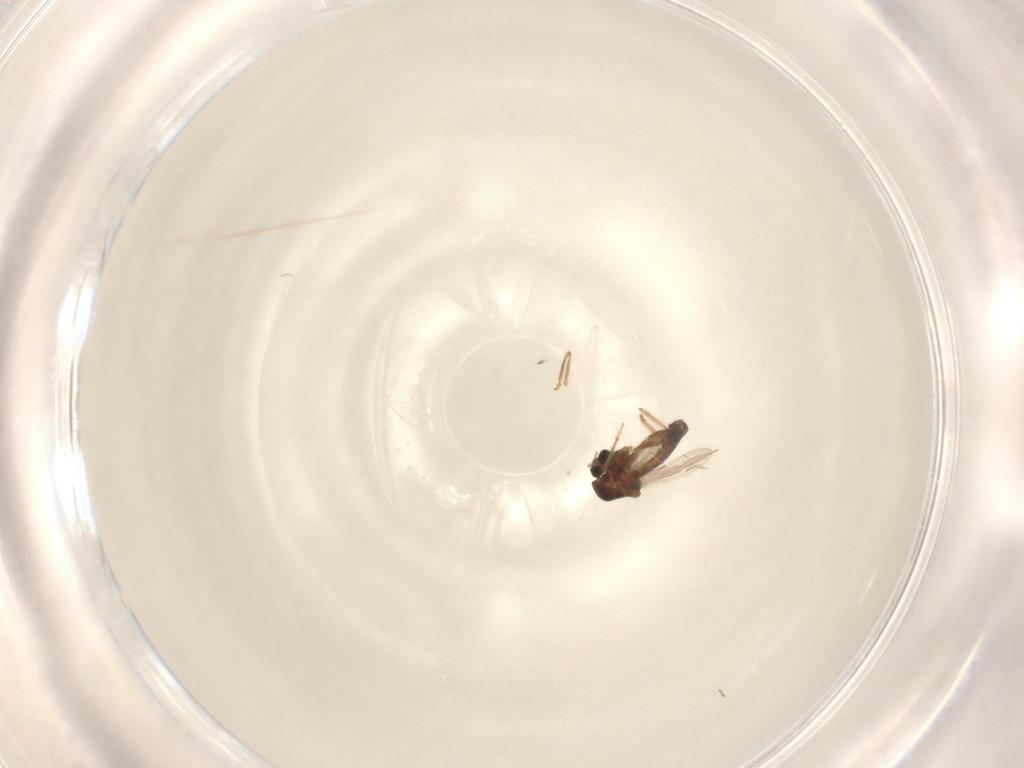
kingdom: Animalia
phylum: Arthropoda
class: Insecta
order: Diptera
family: Ceratopogonidae
